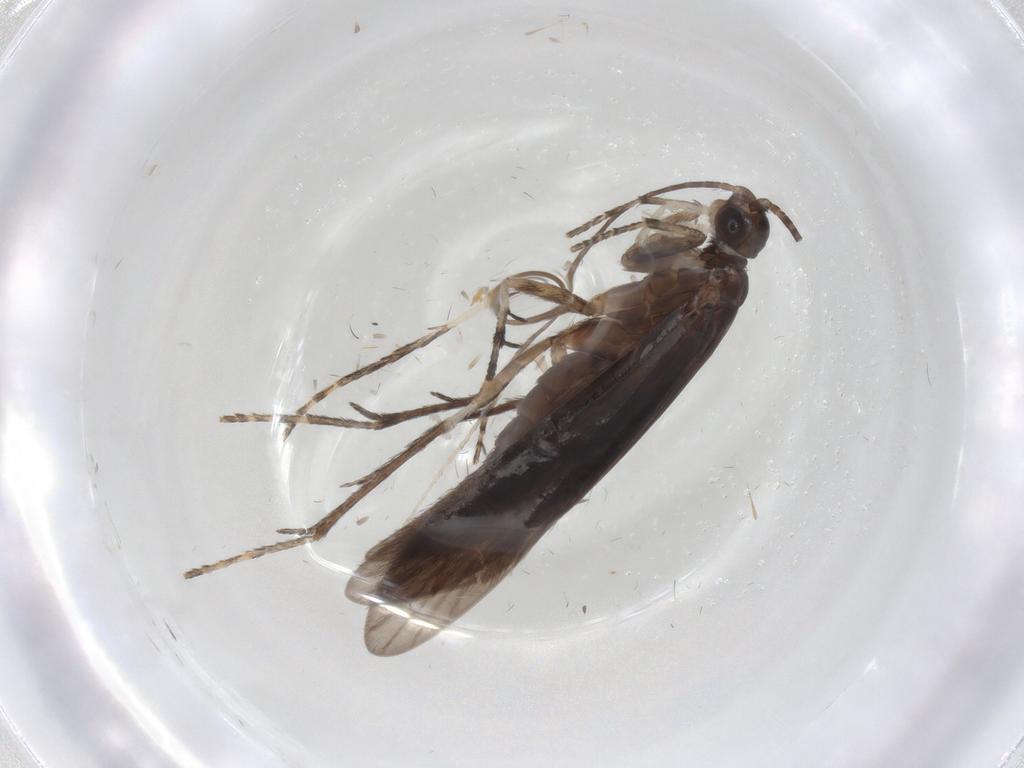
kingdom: Animalia
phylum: Arthropoda
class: Insecta
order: Trichoptera
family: Xiphocentronidae
